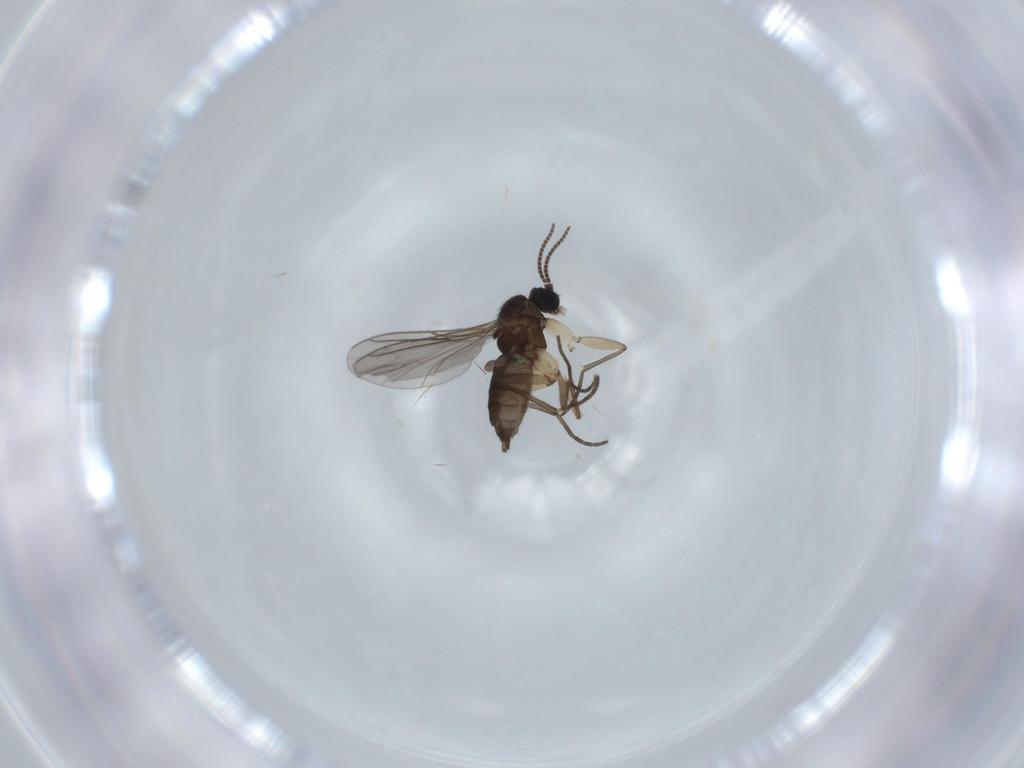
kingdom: Animalia
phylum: Arthropoda
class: Insecta
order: Diptera
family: Sciaridae
